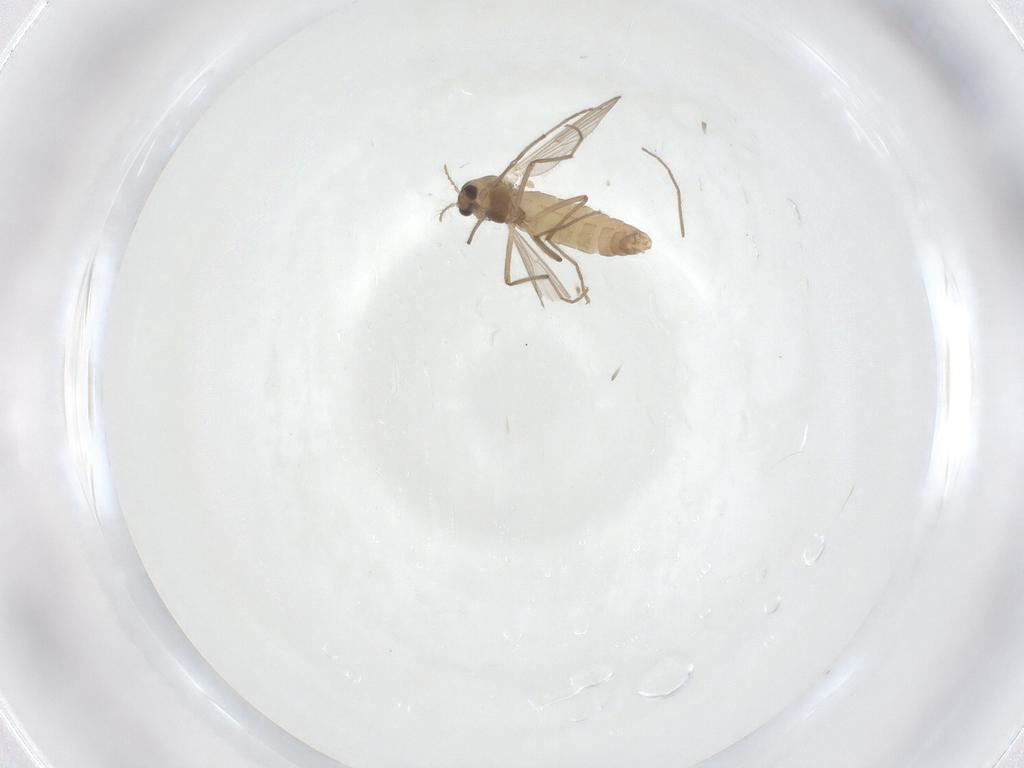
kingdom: Animalia
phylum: Arthropoda
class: Insecta
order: Diptera
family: Chironomidae
